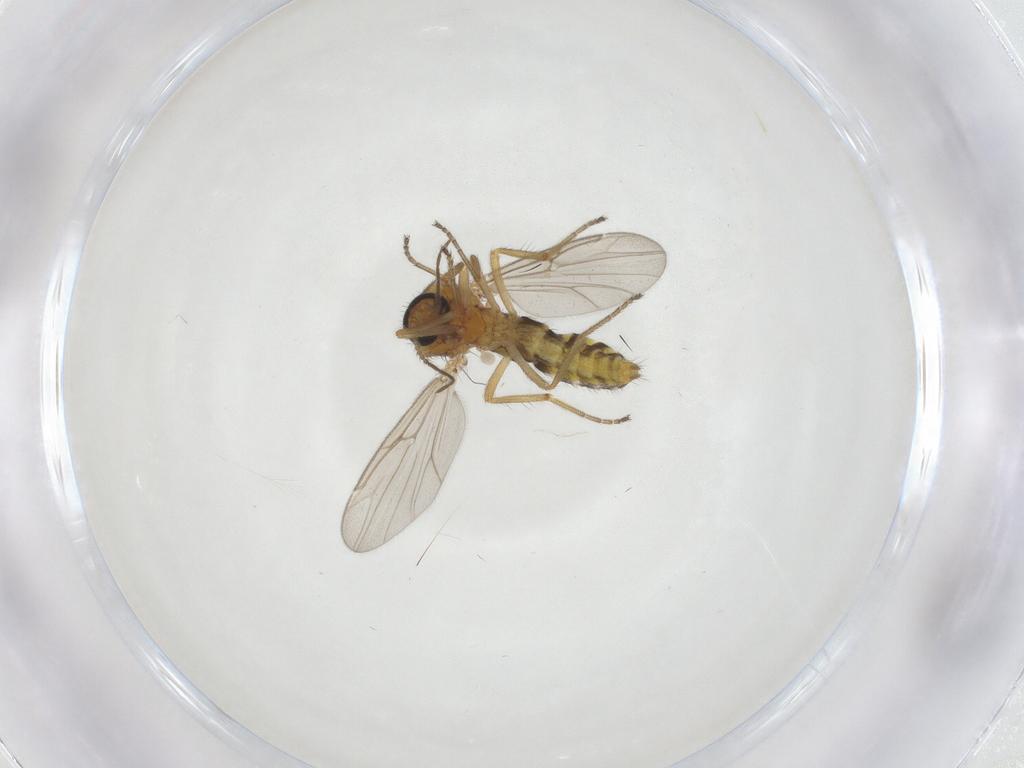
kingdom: Animalia
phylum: Arthropoda
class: Insecta
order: Diptera
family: Ceratopogonidae
